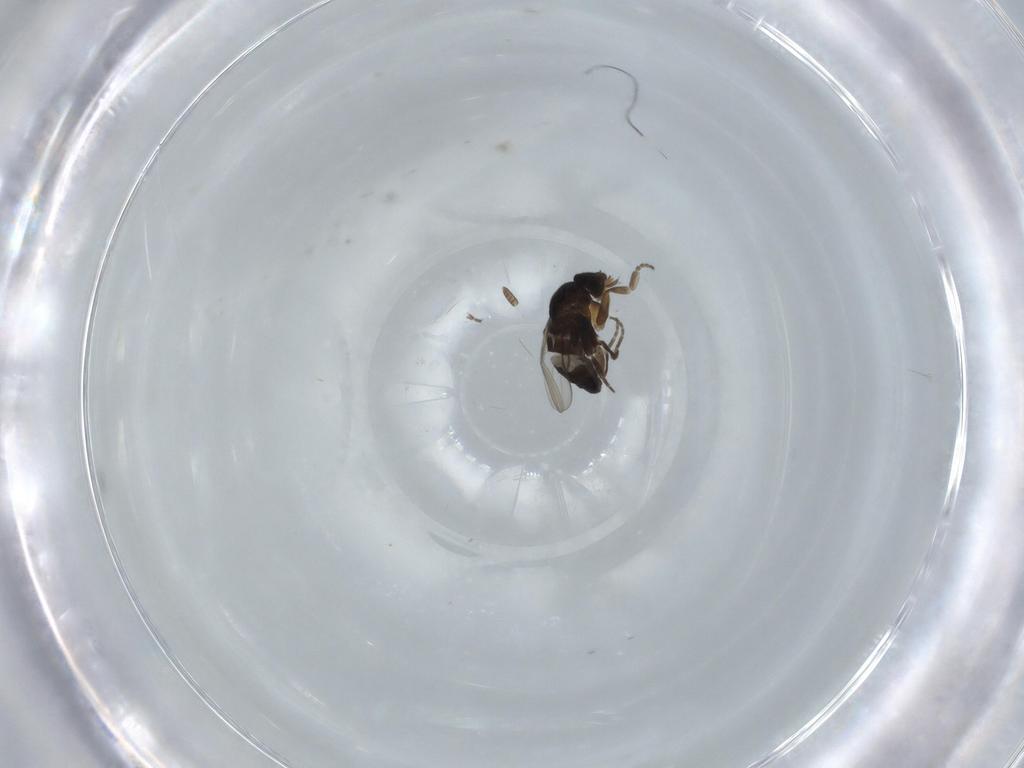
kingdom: Animalia
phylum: Arthropoda
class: Insecta
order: Diptera
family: Phoridae
